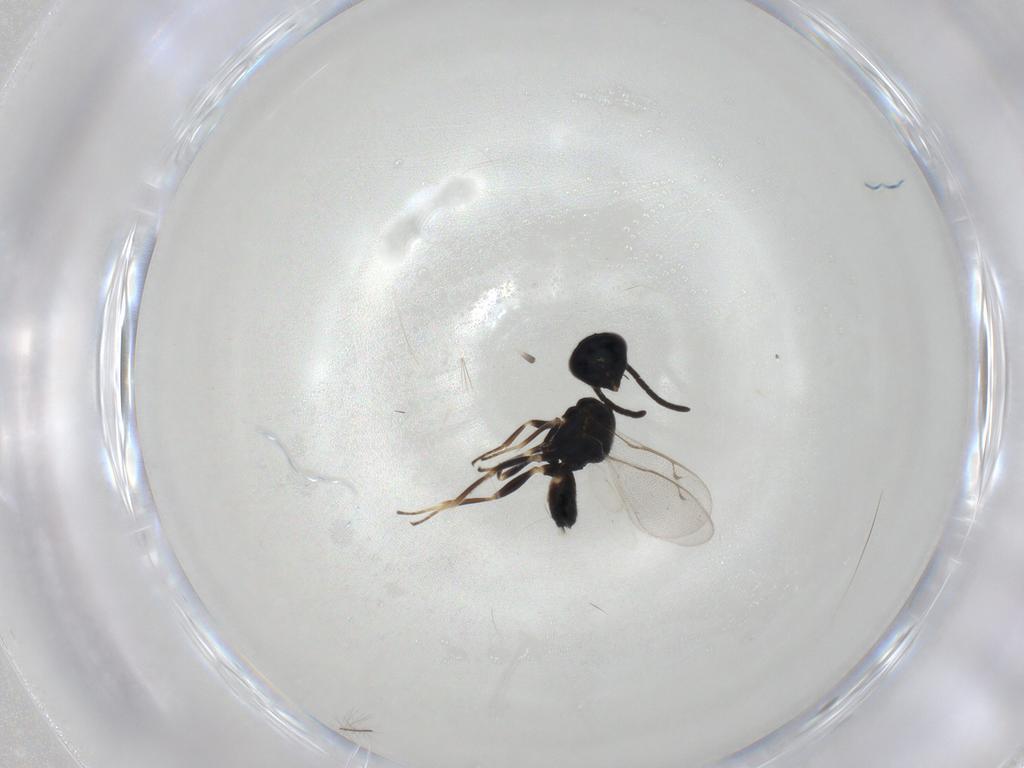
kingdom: Animalia
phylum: Arthropoda
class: Insecta
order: Hymenoptera
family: Eupelmidae
